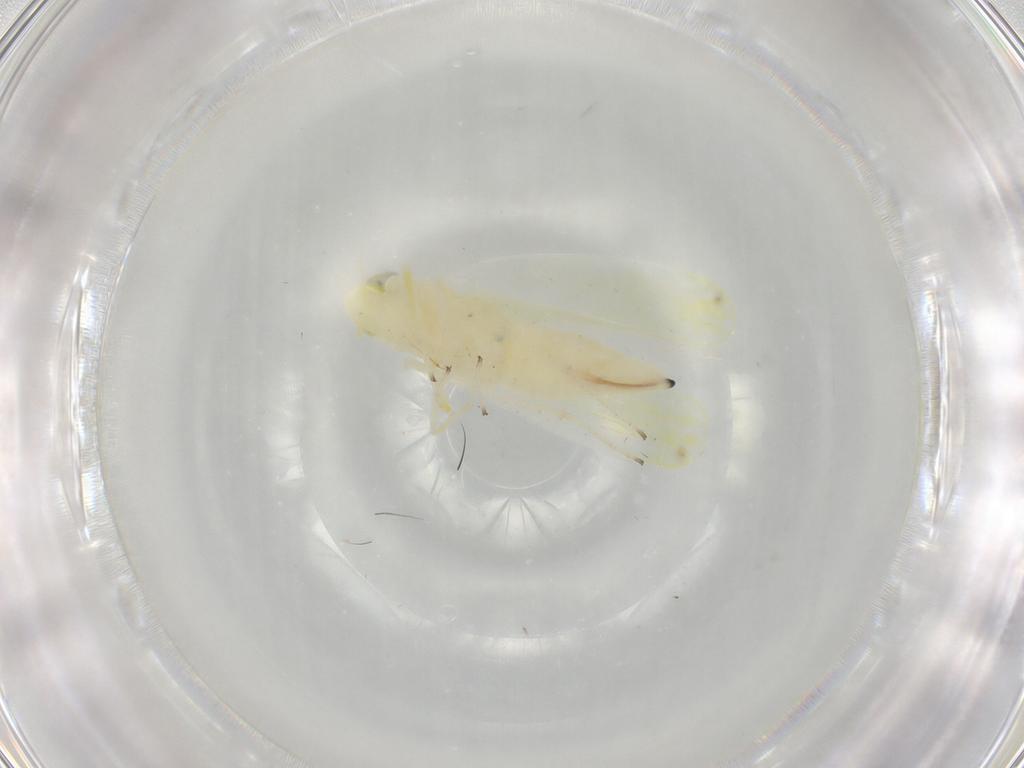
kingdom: Animalia
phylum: Arthropoda
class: Insecta
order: Hemiptera
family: Cicadellidae
